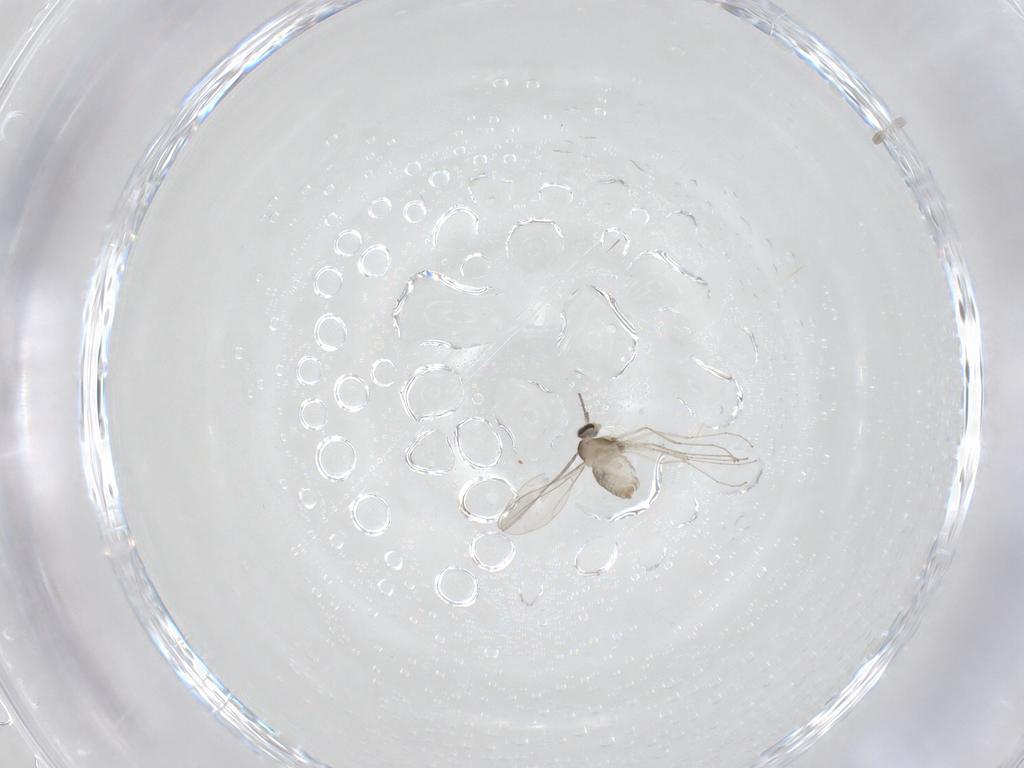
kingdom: Animalia
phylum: Arthropoda
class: Insecta
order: Diptera
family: Cecidomyiidae
